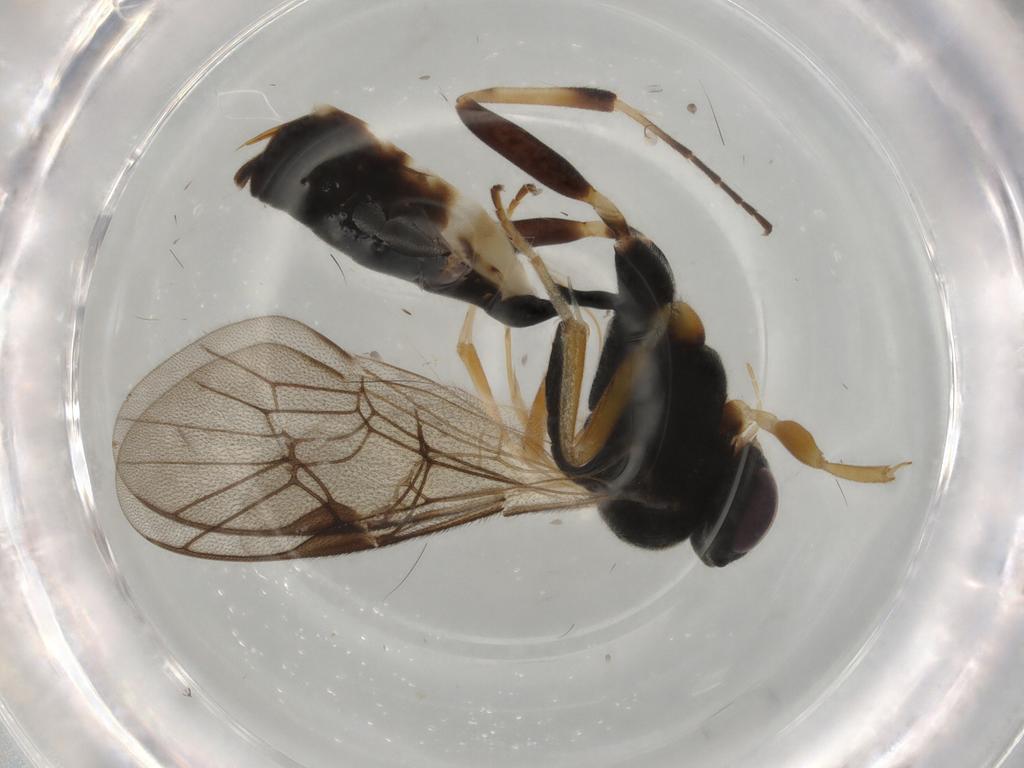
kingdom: Animalia
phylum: Arthropoda
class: Insecta
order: Hymenoptera
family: Ichneumonidae
